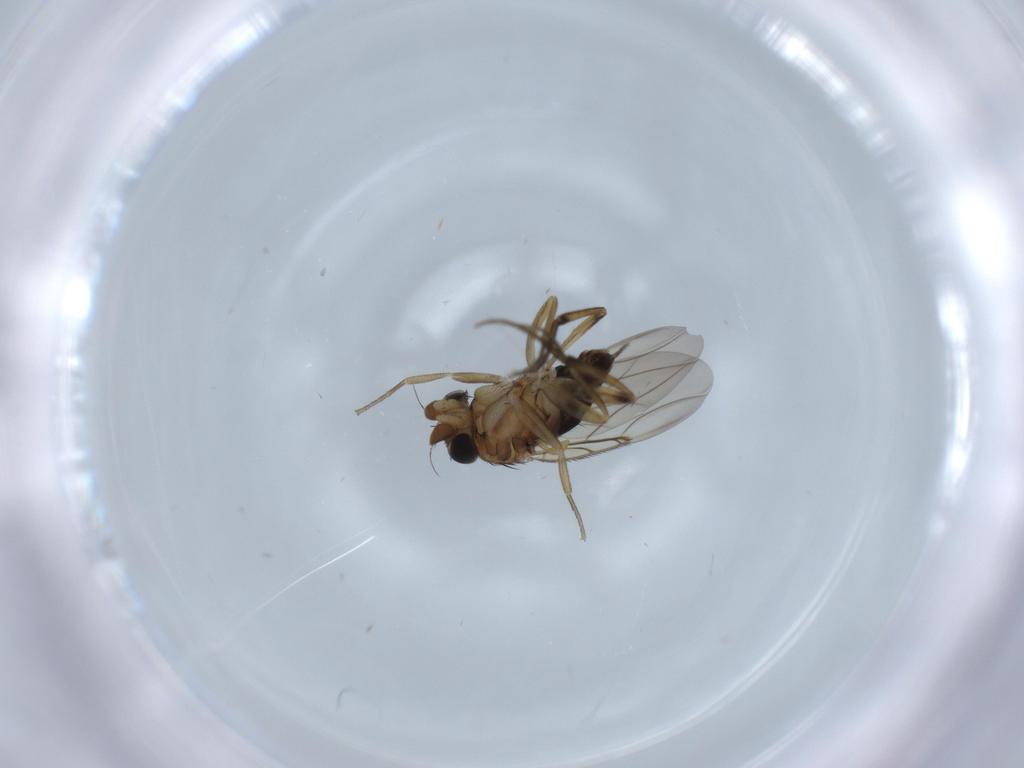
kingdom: Animalia
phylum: Arthropoda
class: Insecta
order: Diptera
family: Phoridae
